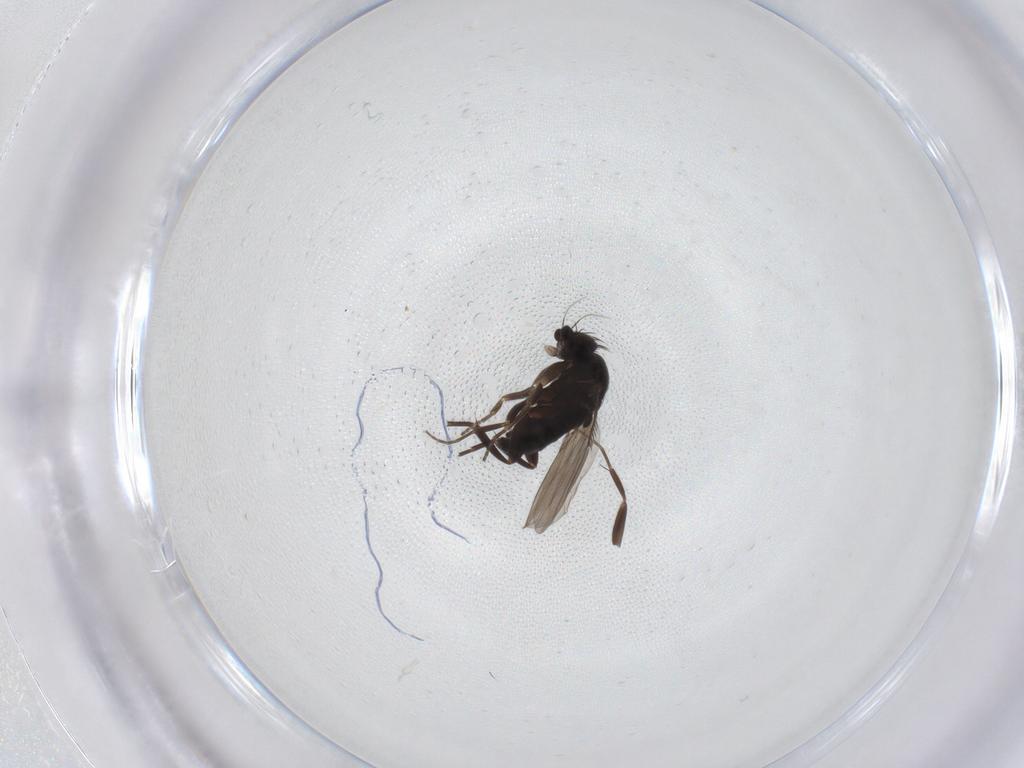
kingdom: Animalia
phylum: Arthropoda
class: Insecta
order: Diptera
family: Phoridae
